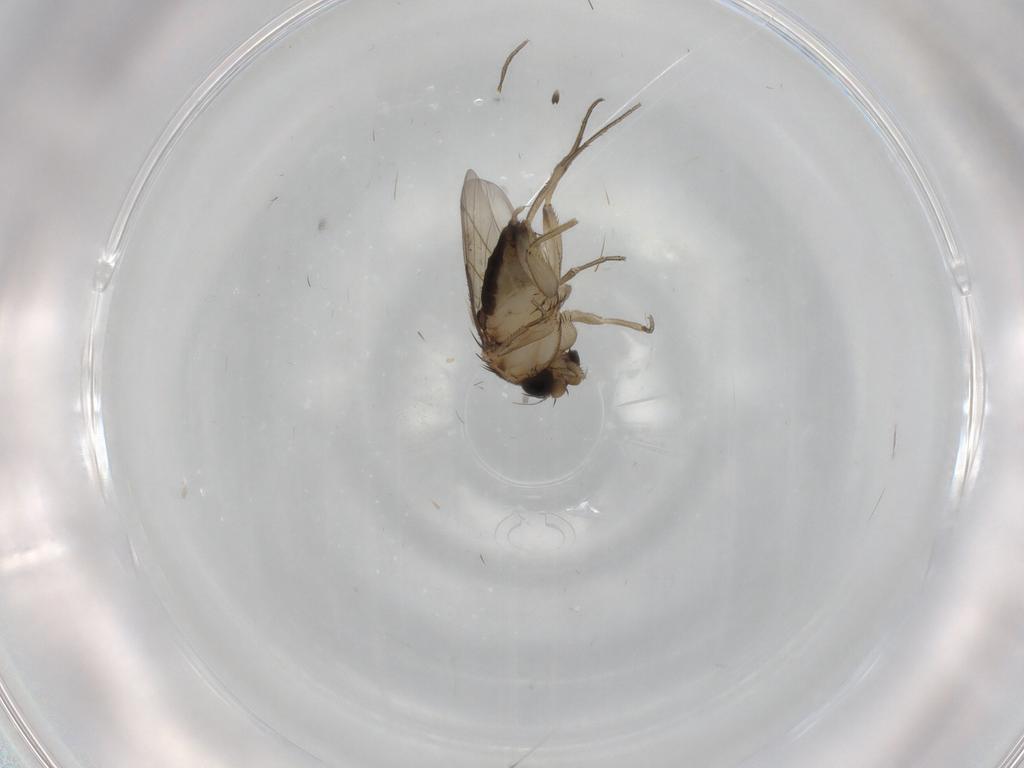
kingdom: Animalia
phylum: Arthropoda
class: Insecta
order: Diptera
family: Phoridae
